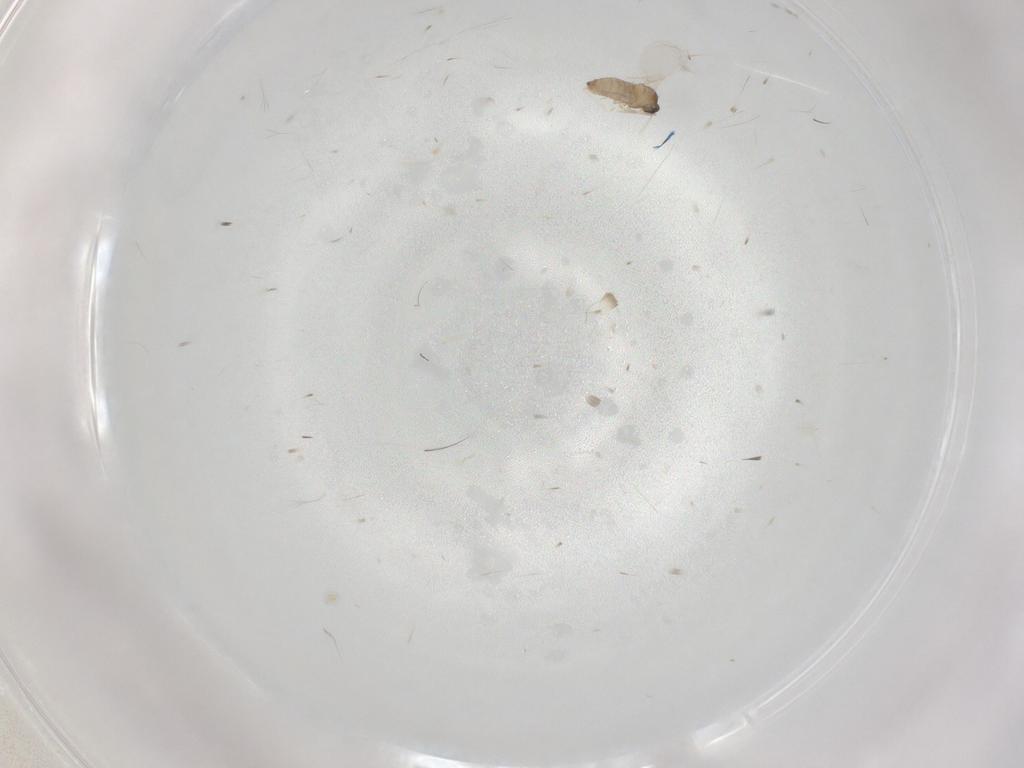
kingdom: Animalia
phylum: Arthropoda
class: Insecta
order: Diptera
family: Cecidomyiidae
